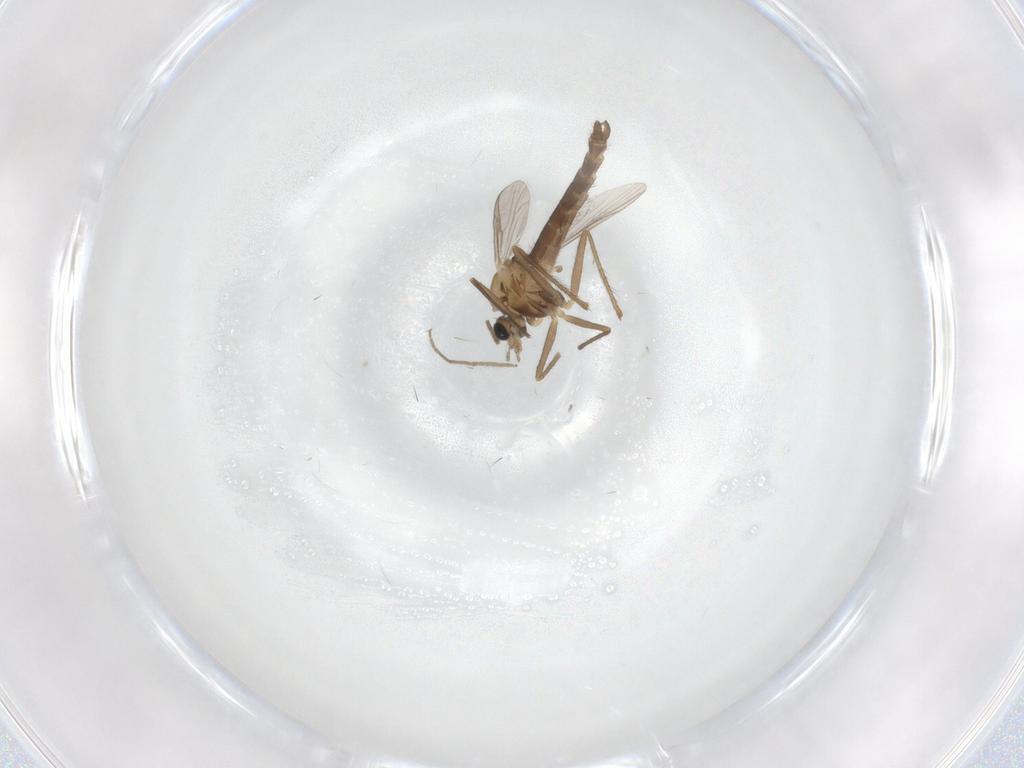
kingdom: Animalia
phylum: Arthropoda
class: Insecta
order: Diptera
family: Chironomidae
